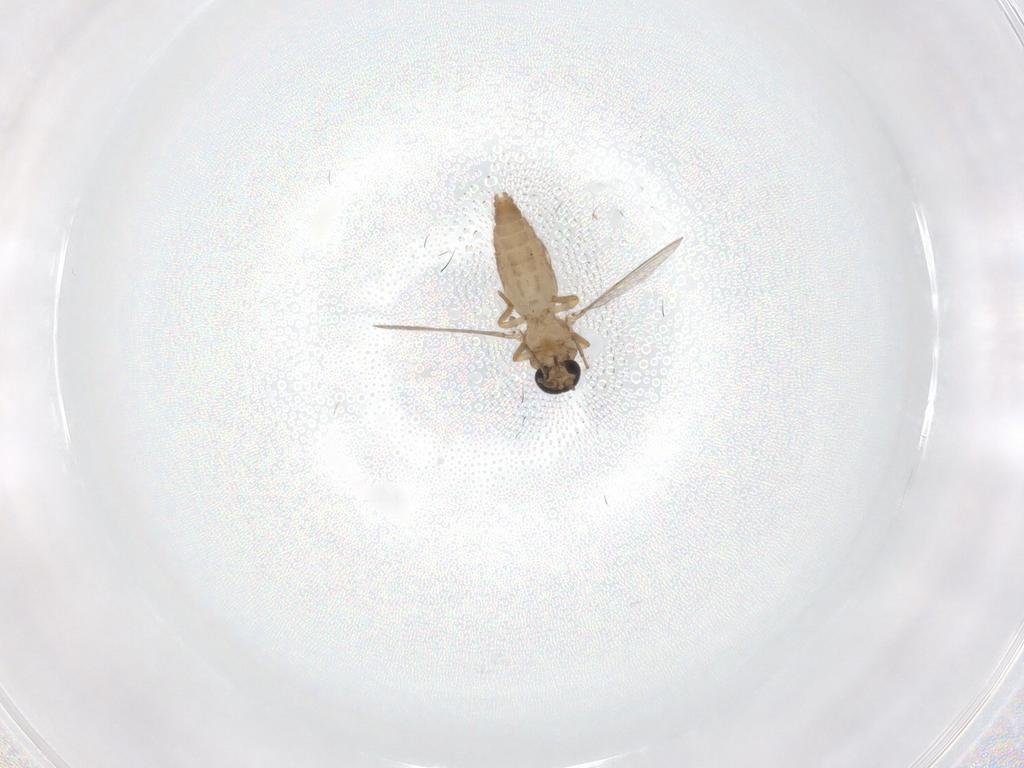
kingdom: Animalia
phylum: Arthropoda
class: Insecta
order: Diptera
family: Ceratopogonidae
